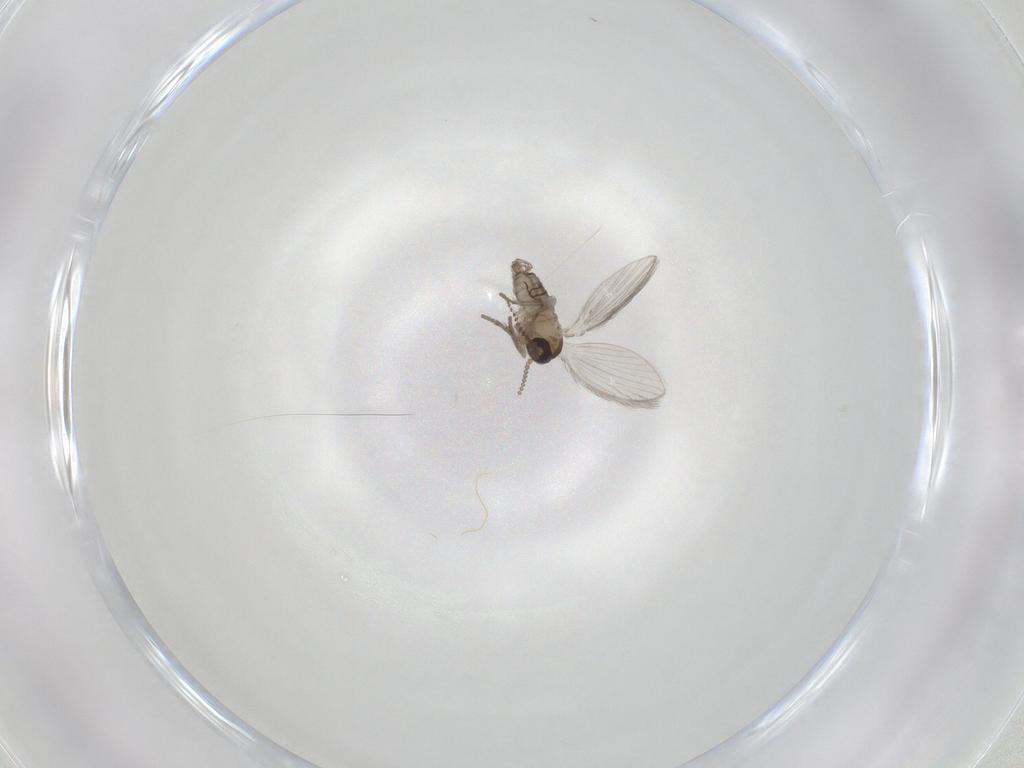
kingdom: Animalia
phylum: Arthropoda
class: Insecta
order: Diptera
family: Psychodidae
